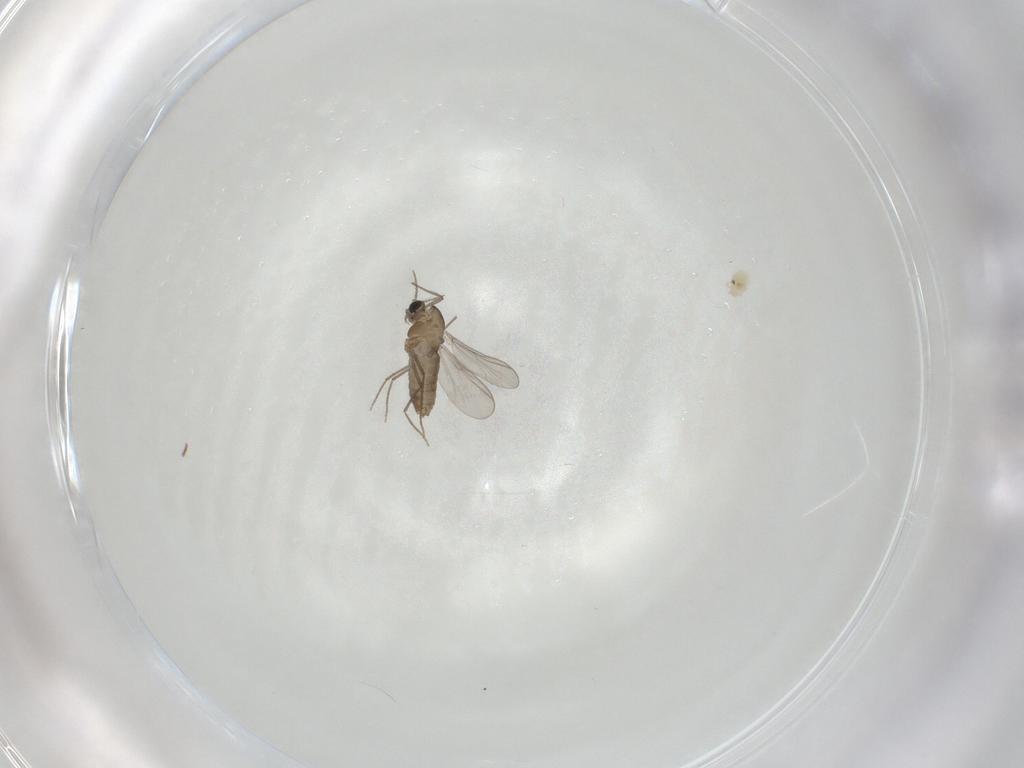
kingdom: Animalia
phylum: Arthropoda
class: Insecta
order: Diptera
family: Chironomidae
